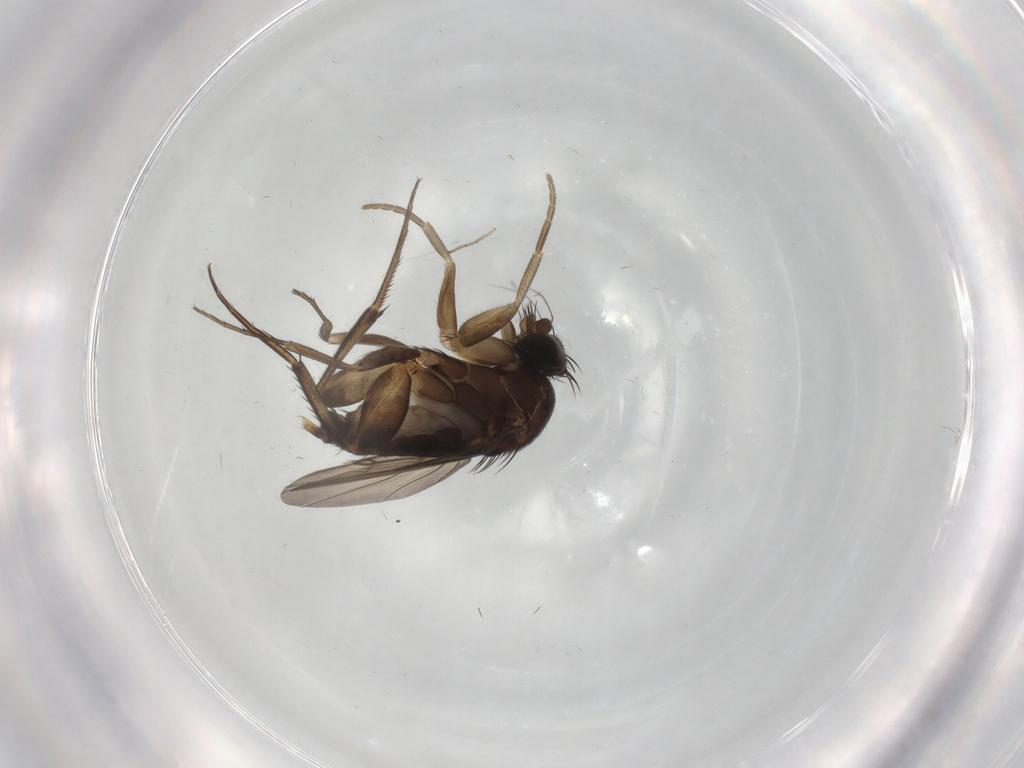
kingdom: Animalia
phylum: Arthropoda
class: Insecta
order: Diptera
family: Phoridae
